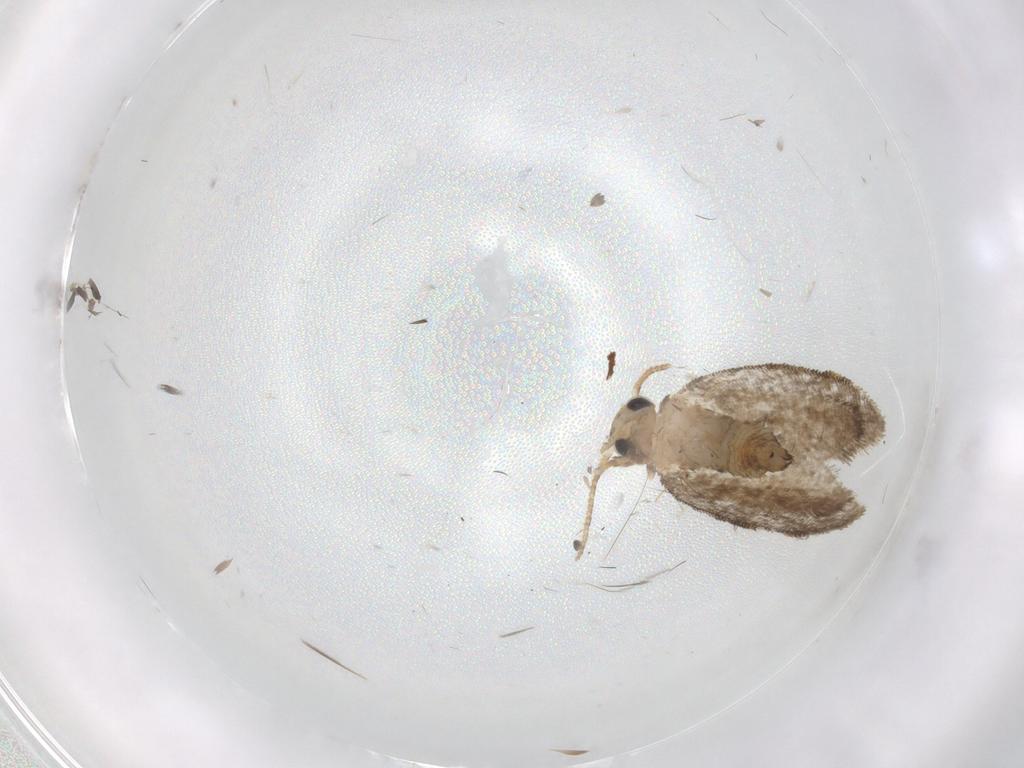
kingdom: Animalia
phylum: Arthropoda
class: Insecta
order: Lepidoptera
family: Psychidae
